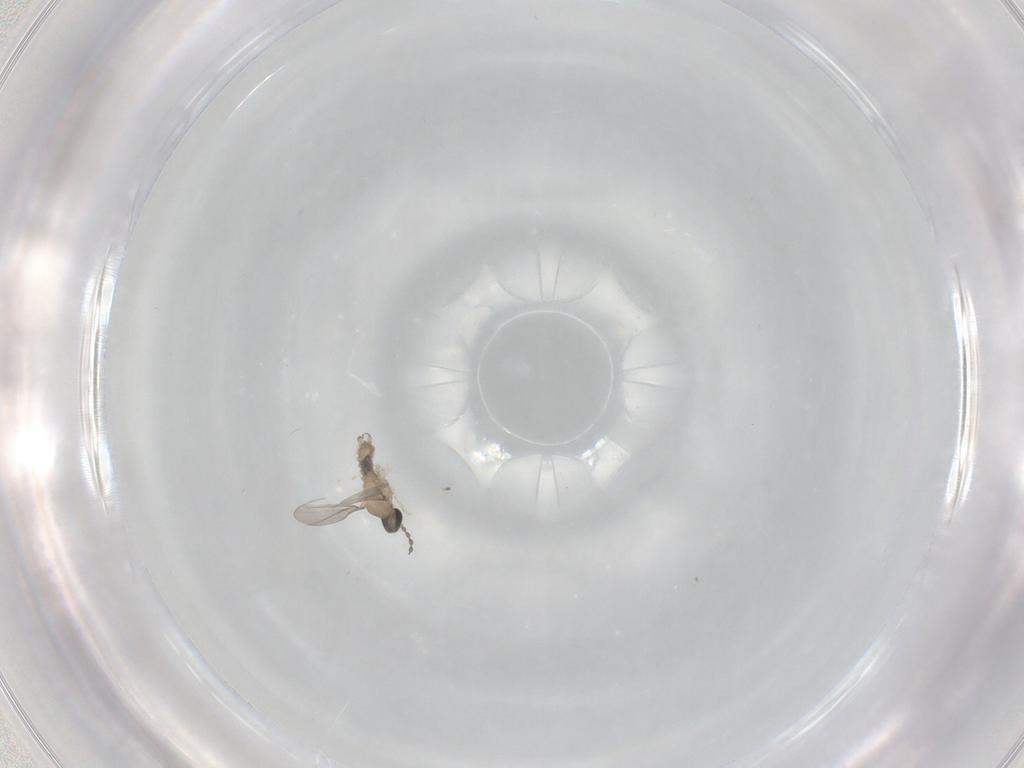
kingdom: Animalia
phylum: Arthropoda
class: Insecta
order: Diptera
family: Cecidomyiidae
